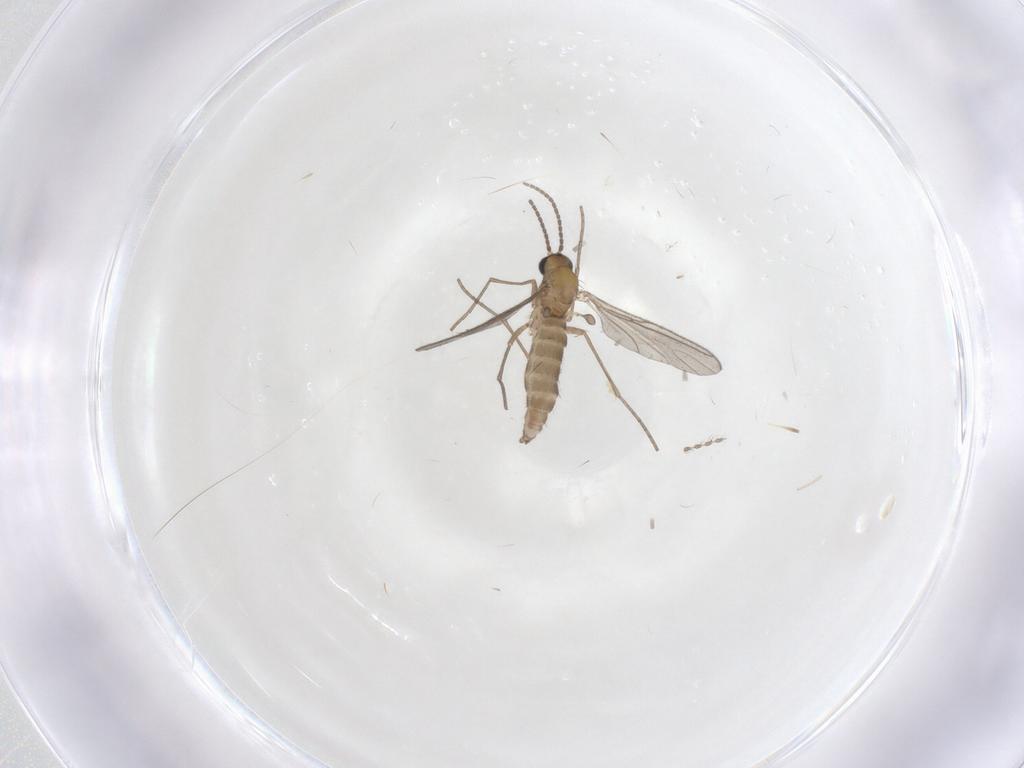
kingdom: Animalia
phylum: Arthropoda
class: Insecta
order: Diptera
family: Sciaridae
